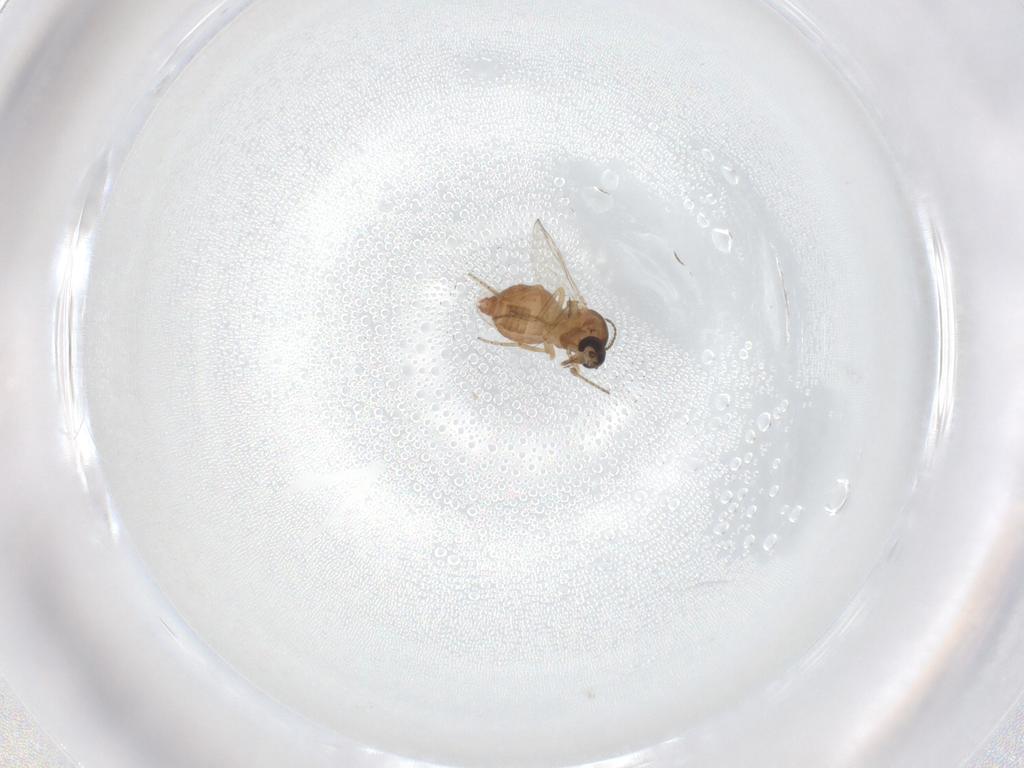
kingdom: Animalia
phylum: Arthropoda
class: Insecta
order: Diptera
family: Ceratopogonidae
